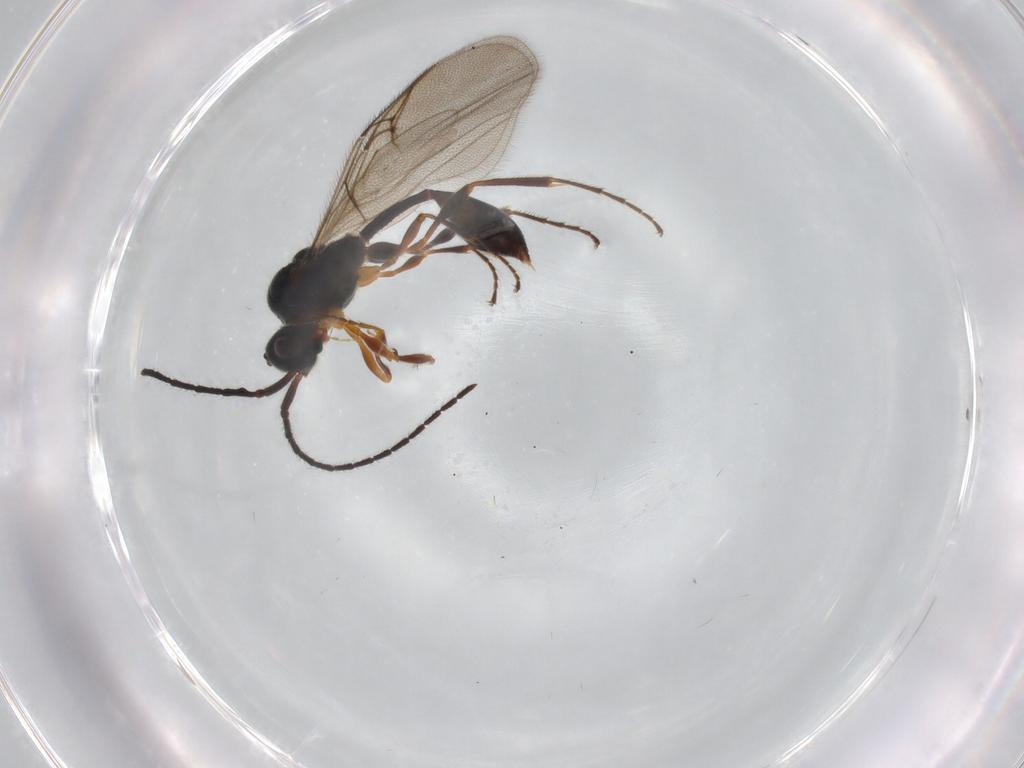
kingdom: Animalia
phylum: Arthropoda
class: Insecta
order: Hymenoptera
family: Diapriidae
